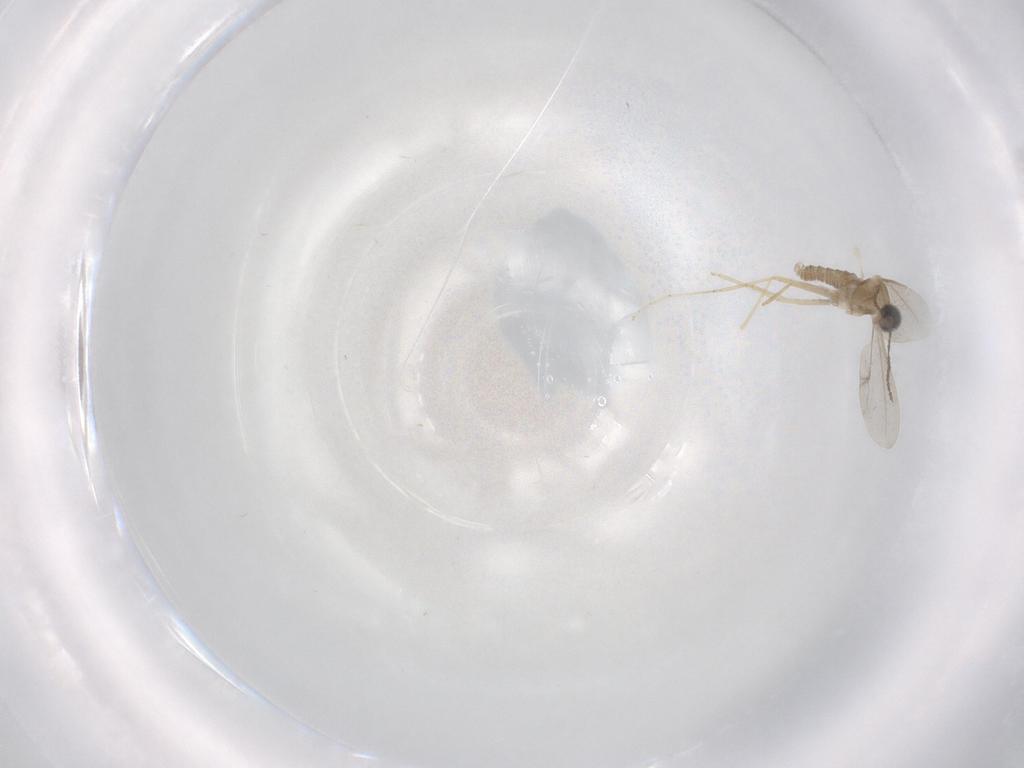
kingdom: Animalia
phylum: Arthropoda
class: Insecta
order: Diptera
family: Cecidomyiidae
